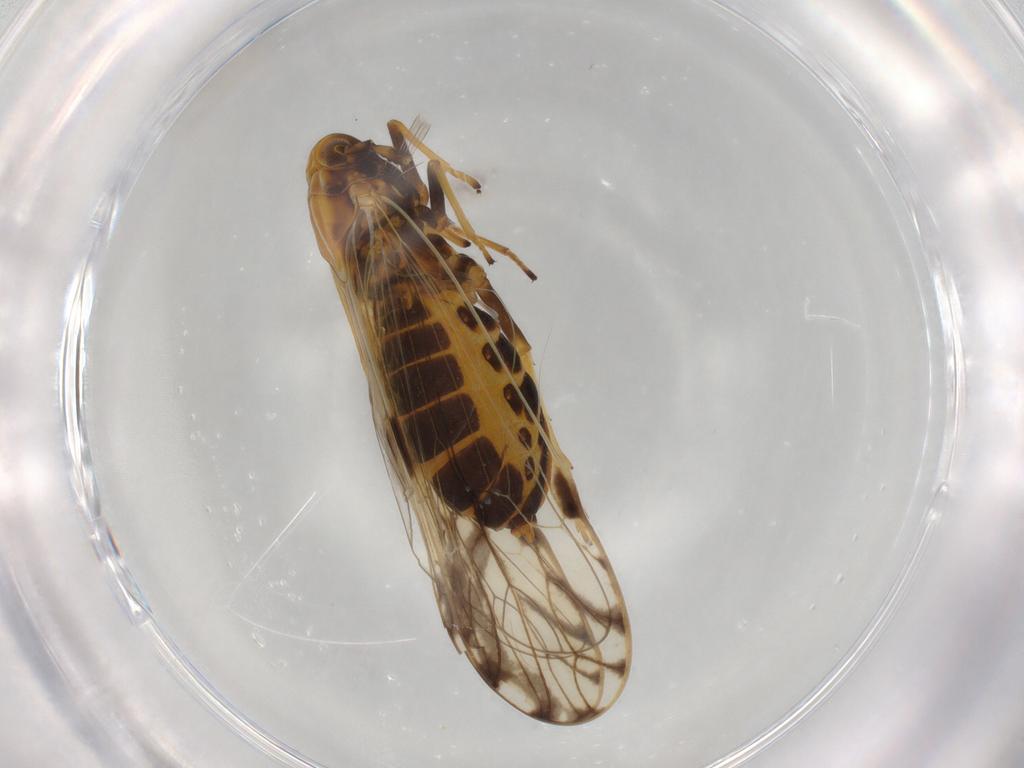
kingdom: Animalia
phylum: Arthropoda
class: Insecta
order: Hemiptera
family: Delphacidae
